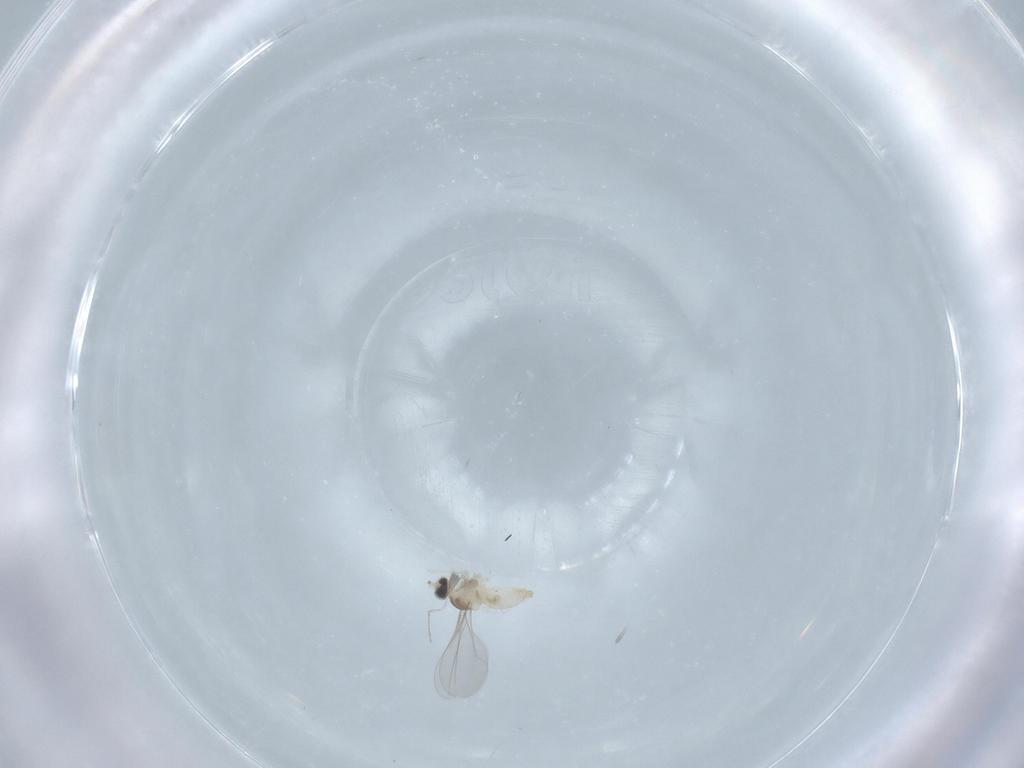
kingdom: Animalia
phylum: Arthropoda
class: Insecta
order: Diptera
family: Cecidomyiidae
